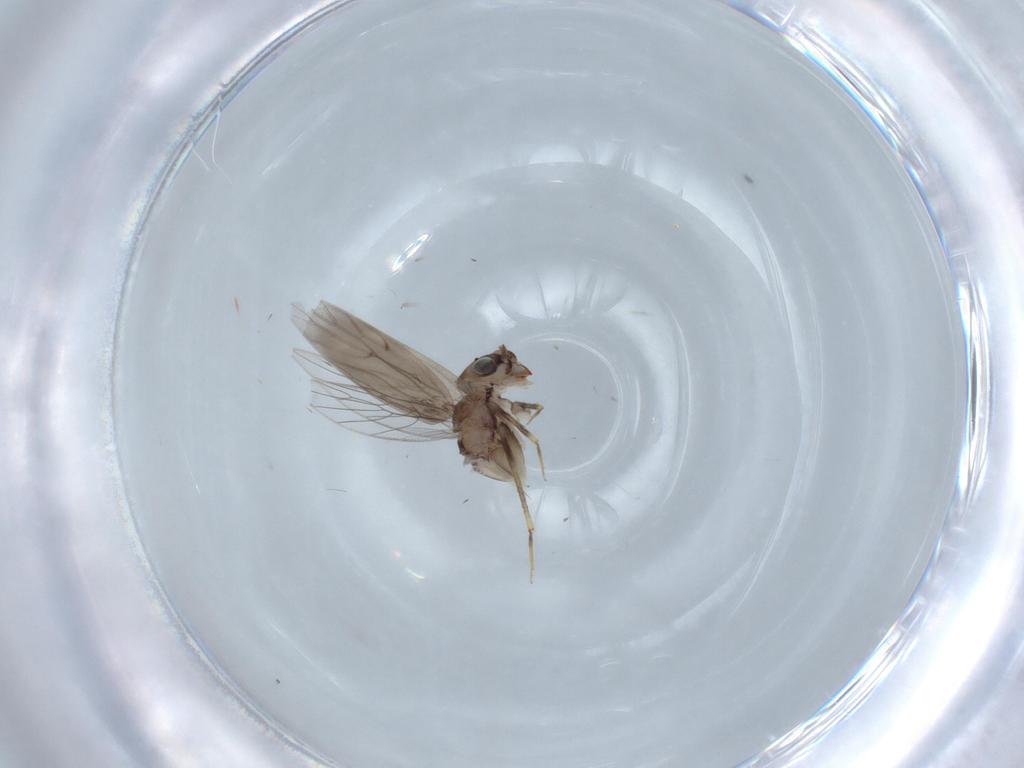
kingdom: Animalia
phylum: Arthropoda
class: Insecta
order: Psocodea
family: Lepidopsocidae
